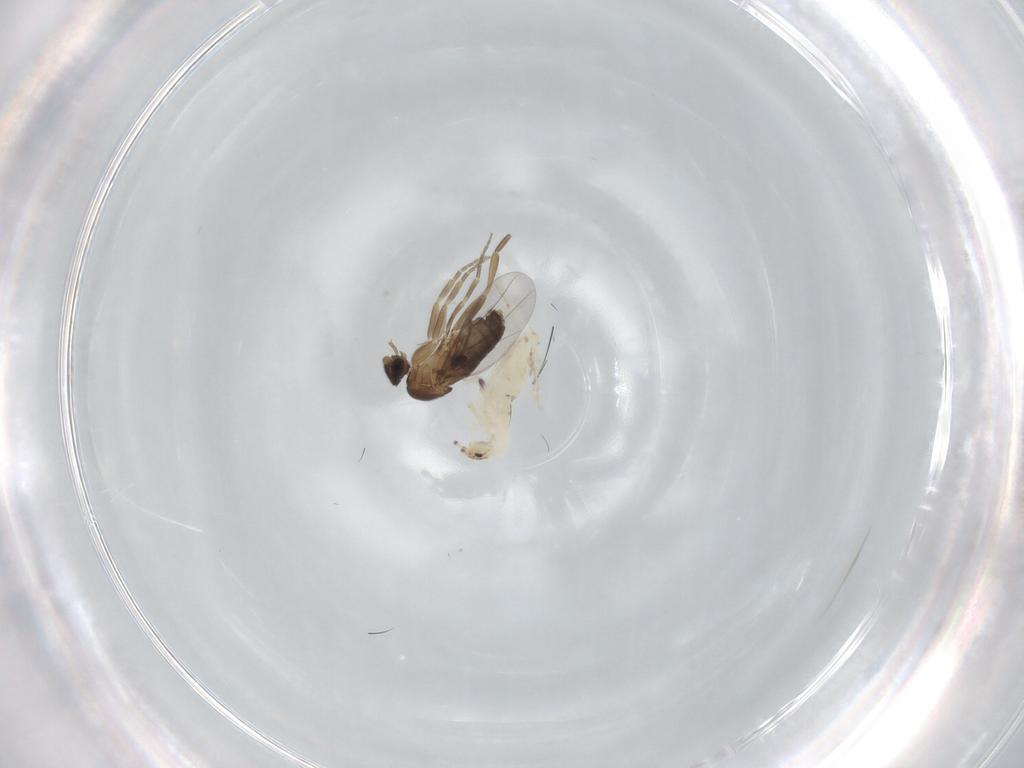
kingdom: Animalia
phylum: Arthropoda
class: Insecta
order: Diptera
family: Phoridae
